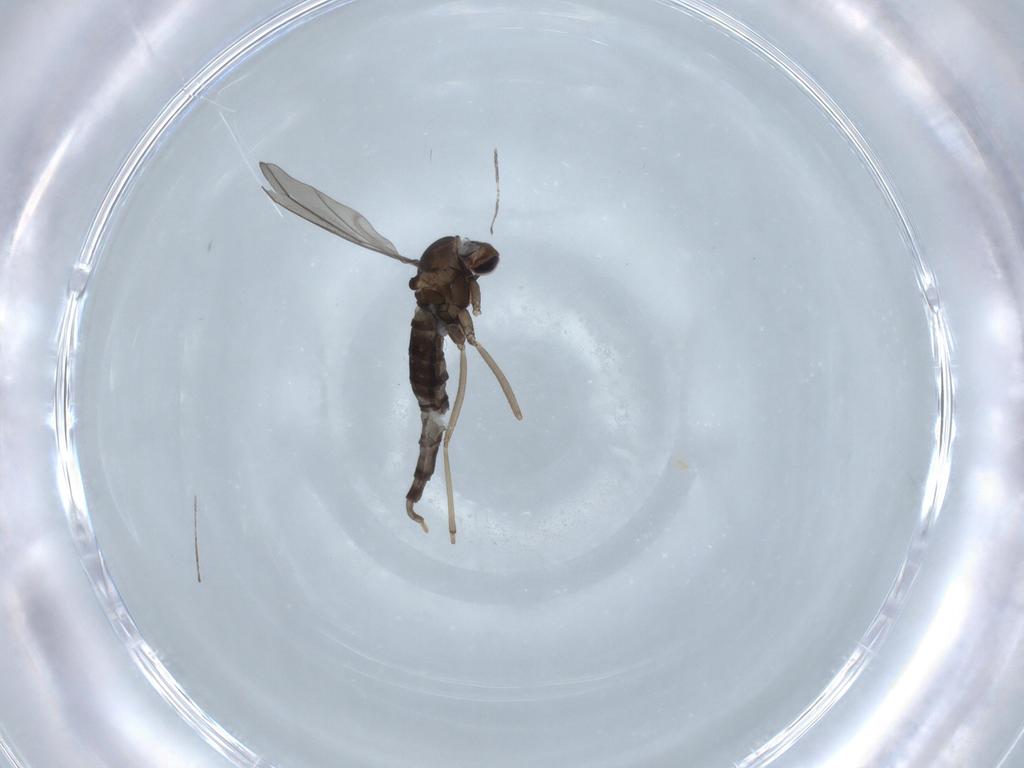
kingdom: Animalia
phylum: Arthropoda
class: Insecta
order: Diptera
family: Cecidomyiidae
